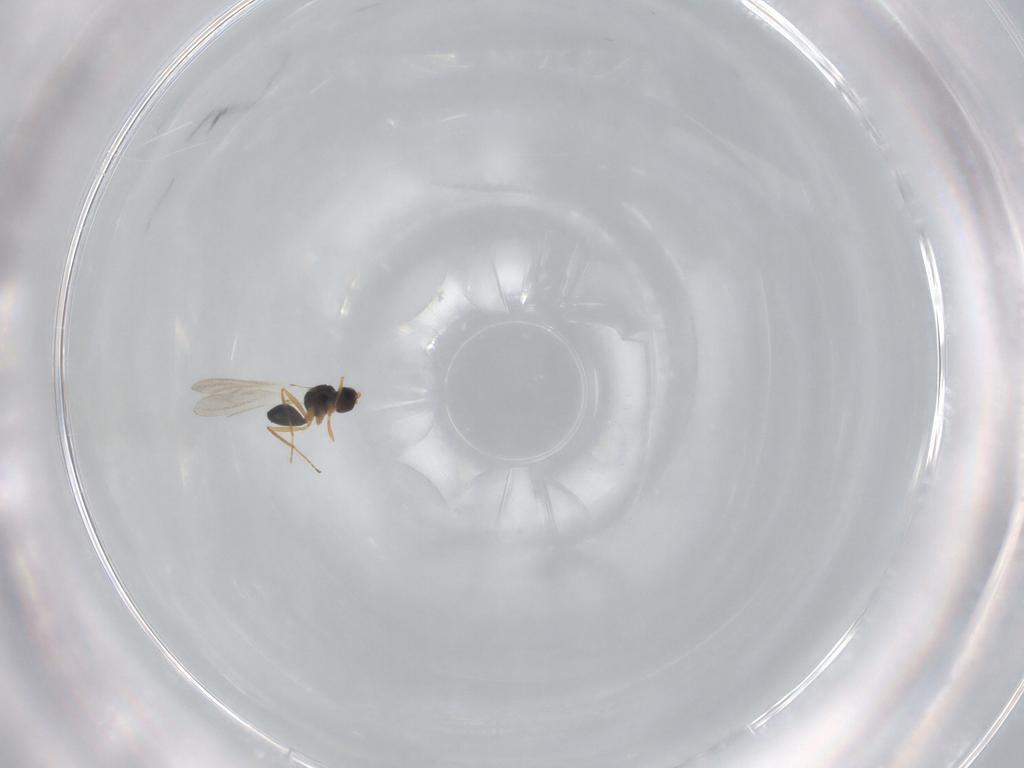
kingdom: Animalia
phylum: Arthropoda
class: Insecta
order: Hymenoptera
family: Mymaridae
